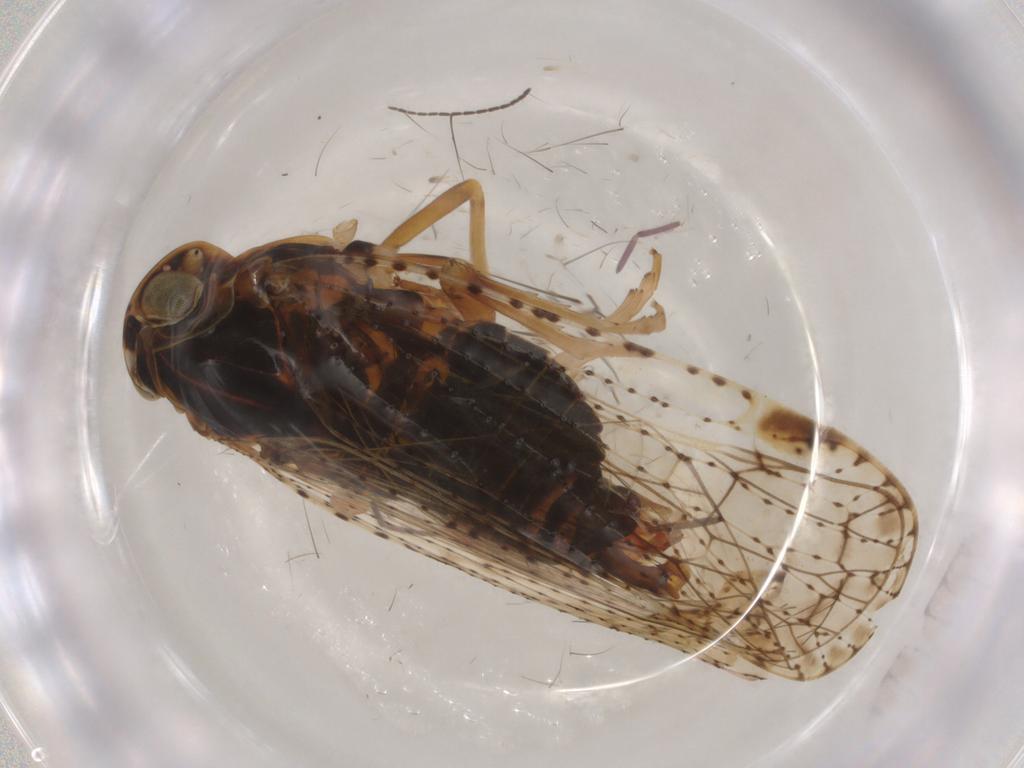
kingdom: Animalia
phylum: Arthropoda
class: Insecta
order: Hemiptera
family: Cixiidae
